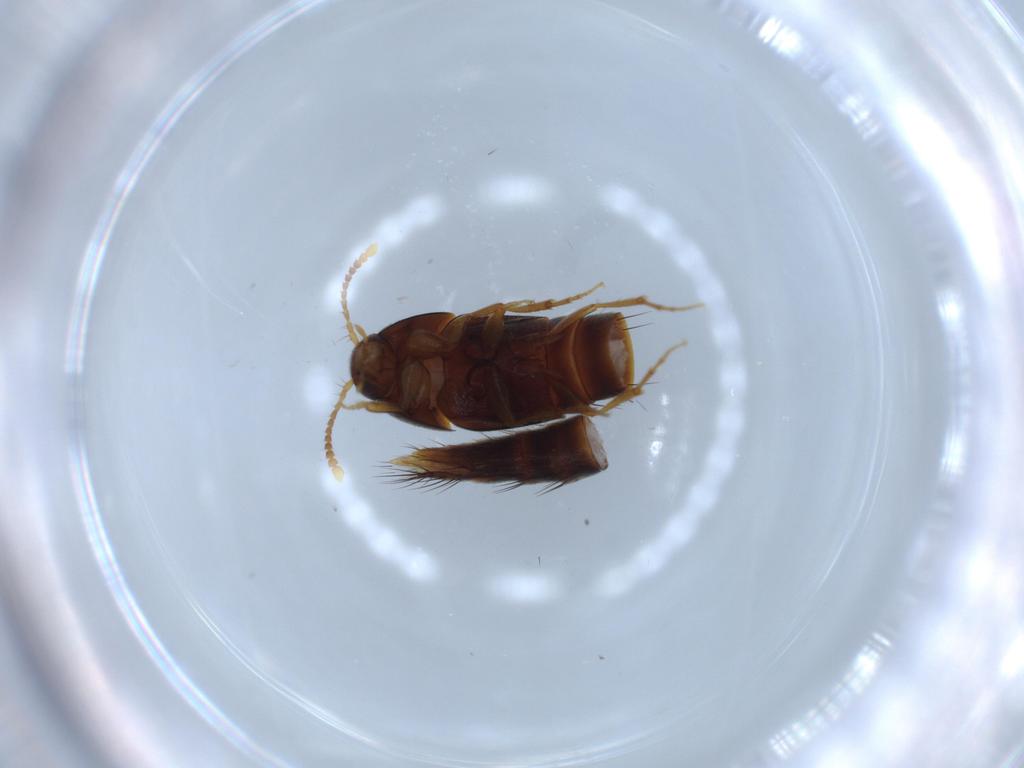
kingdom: Animalia
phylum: Arthropoda
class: Insecta
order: Coleoptera
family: Staphylinidae
